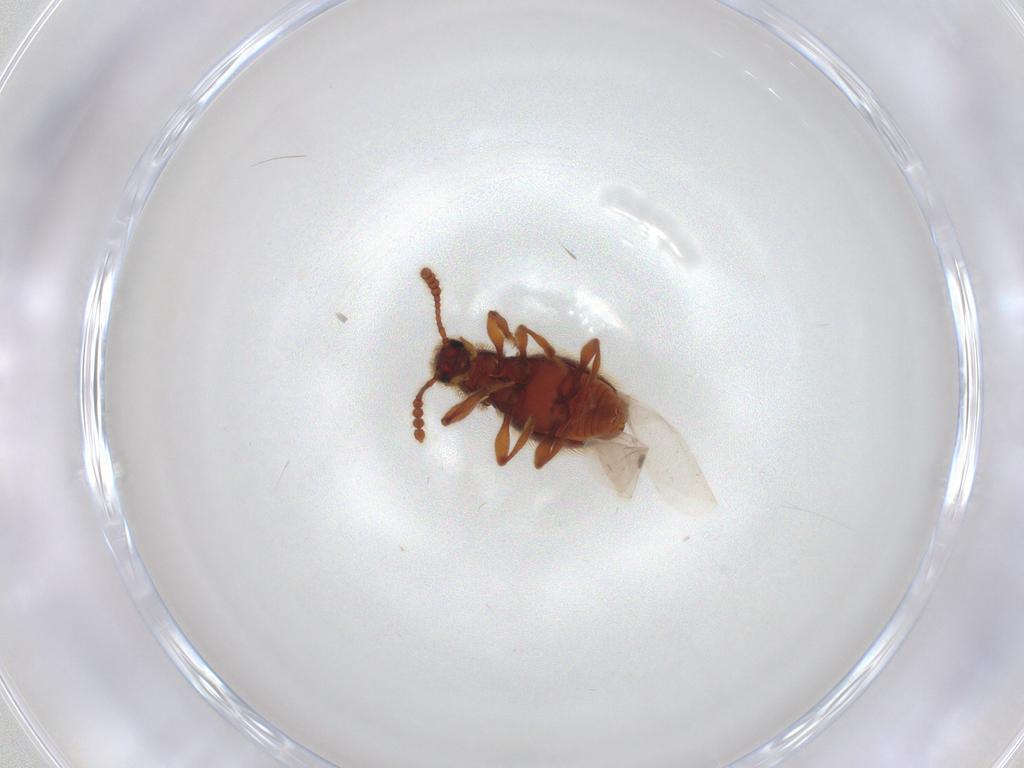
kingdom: Animalia
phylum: Arthropoda
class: Insecta
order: Coleoptera
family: Staphylinidae
